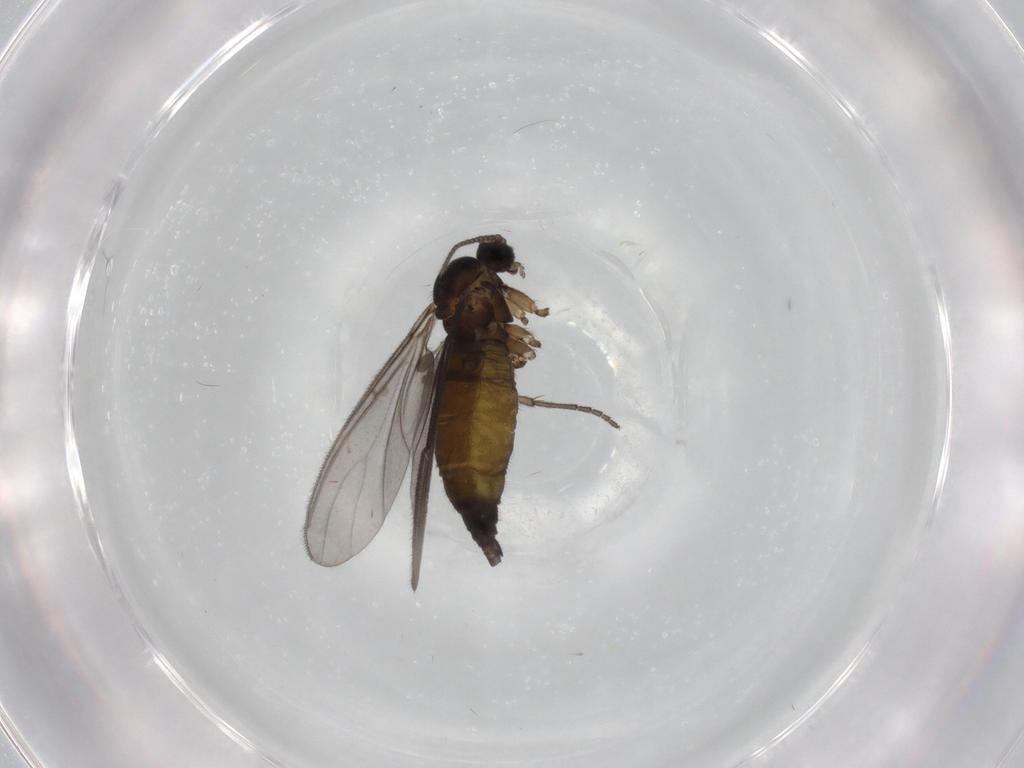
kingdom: Animalia
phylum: Arthropoda
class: Insecta
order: Diptera
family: Sciaridae
